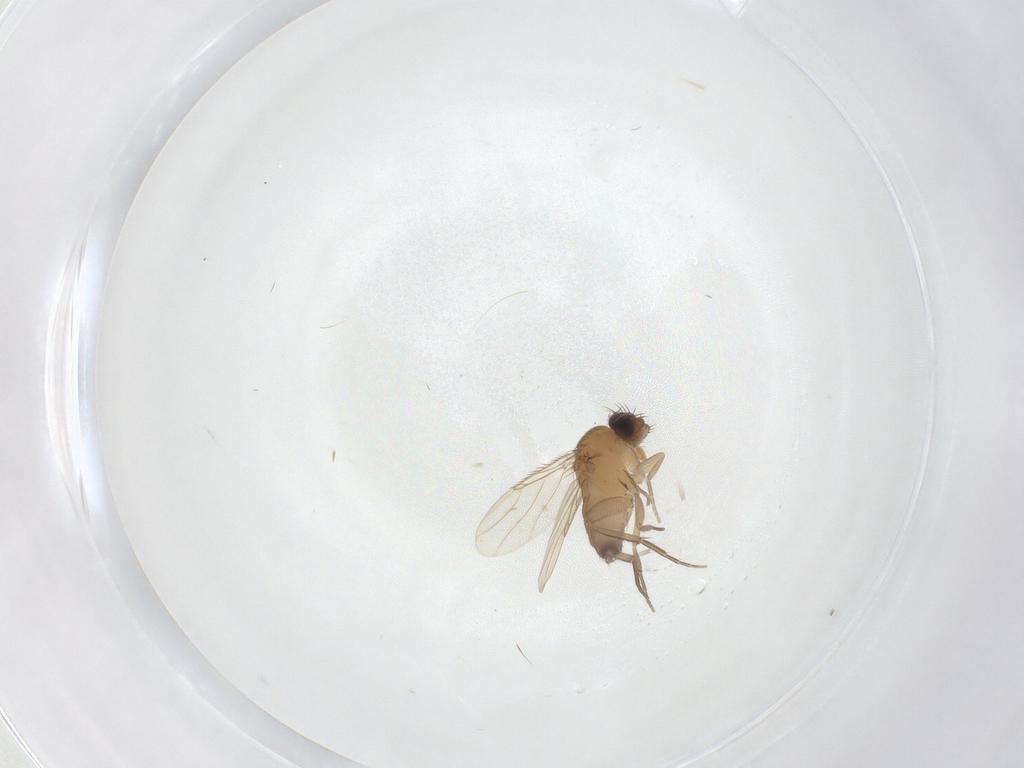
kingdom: Animalia
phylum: Arthropoda
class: Insecta
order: Diptera
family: Phoridae
